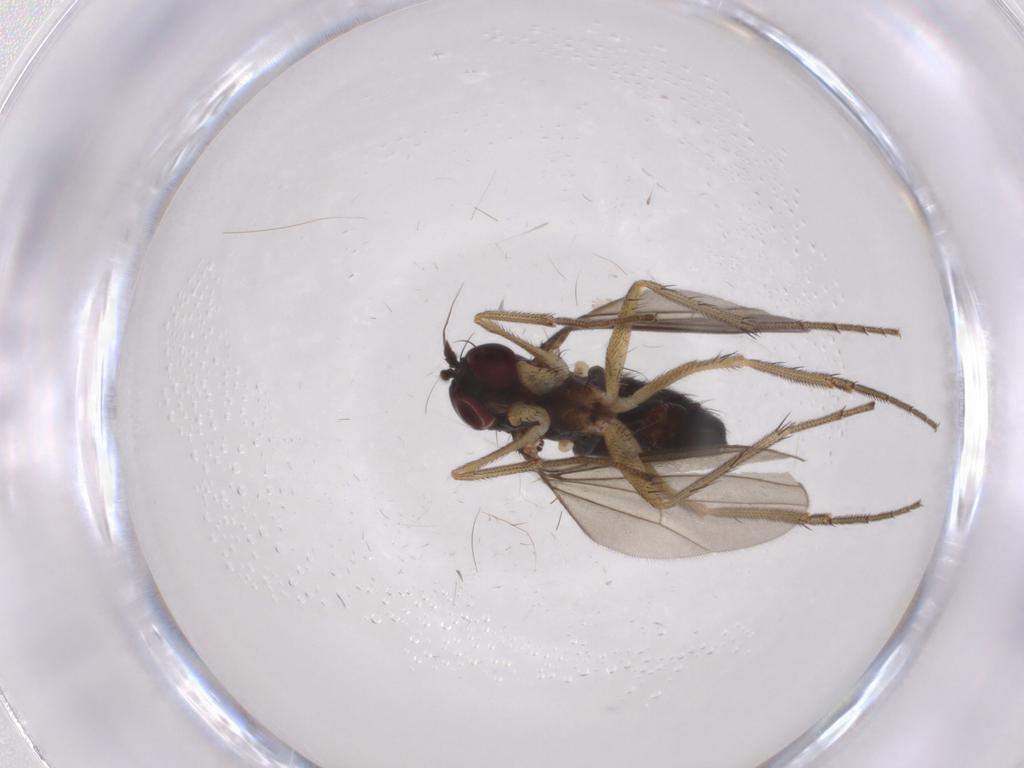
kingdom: Animalia
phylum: Arthropoda
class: Insecta
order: Diptera
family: Dolichopodidae
